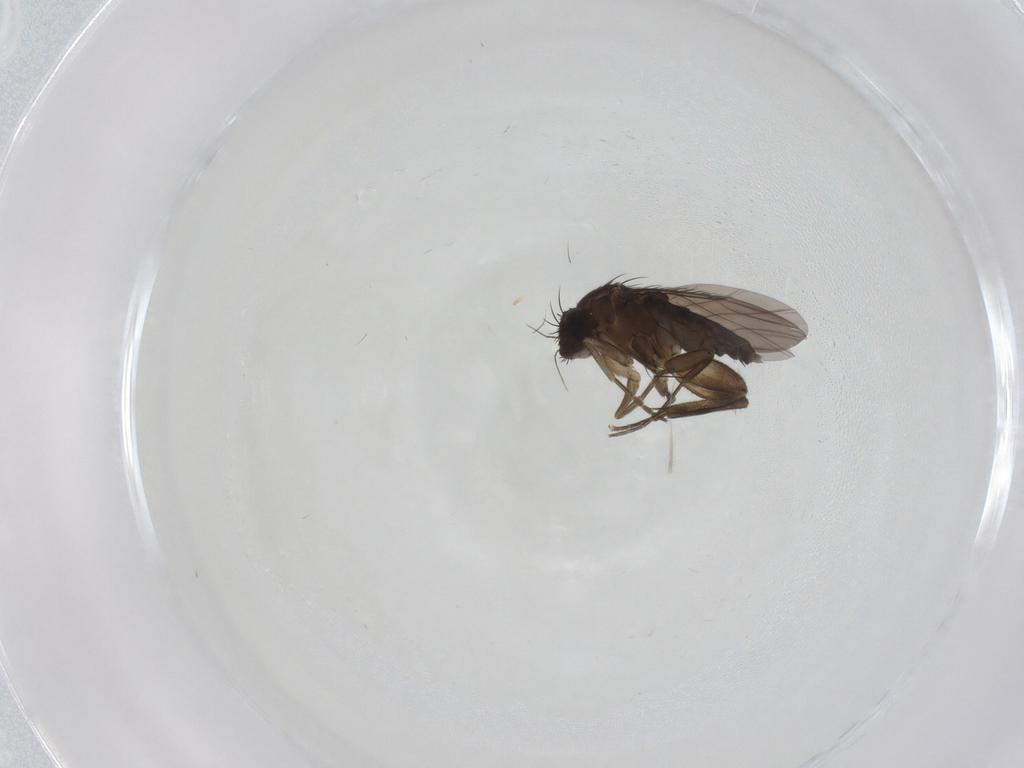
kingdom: Animalia
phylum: Arthropoda
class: Insecta
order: Diptera
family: Phoridae
